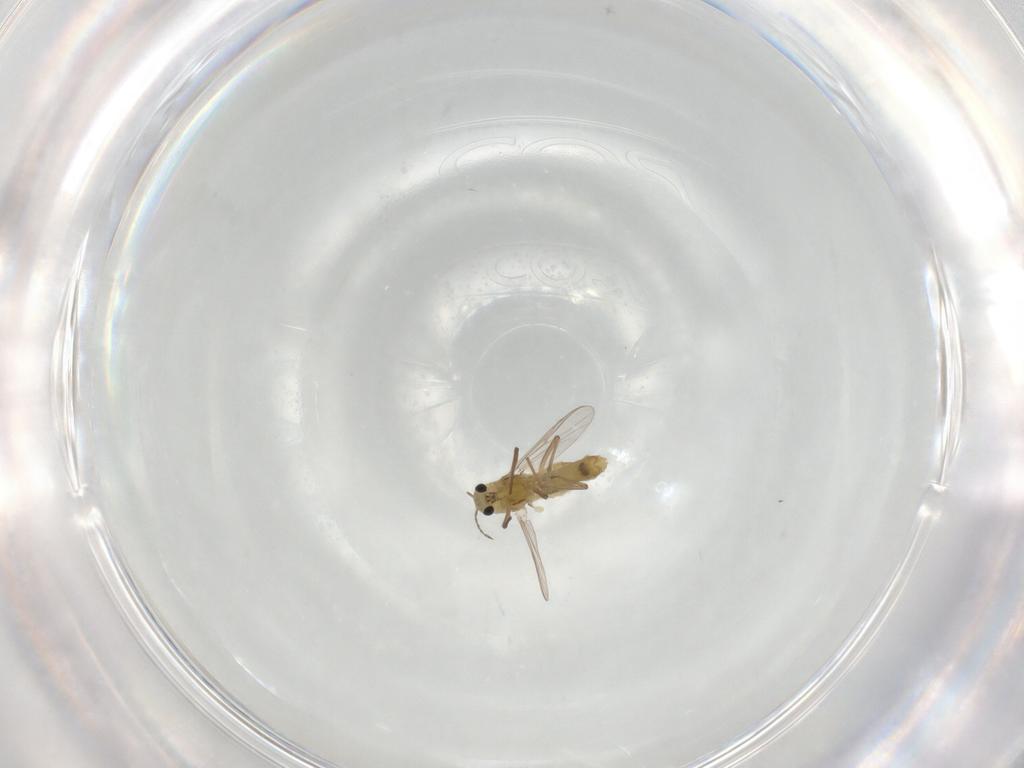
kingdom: Animalia
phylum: Arthropoda
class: Insecta
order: Diptera
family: Chironomidae
